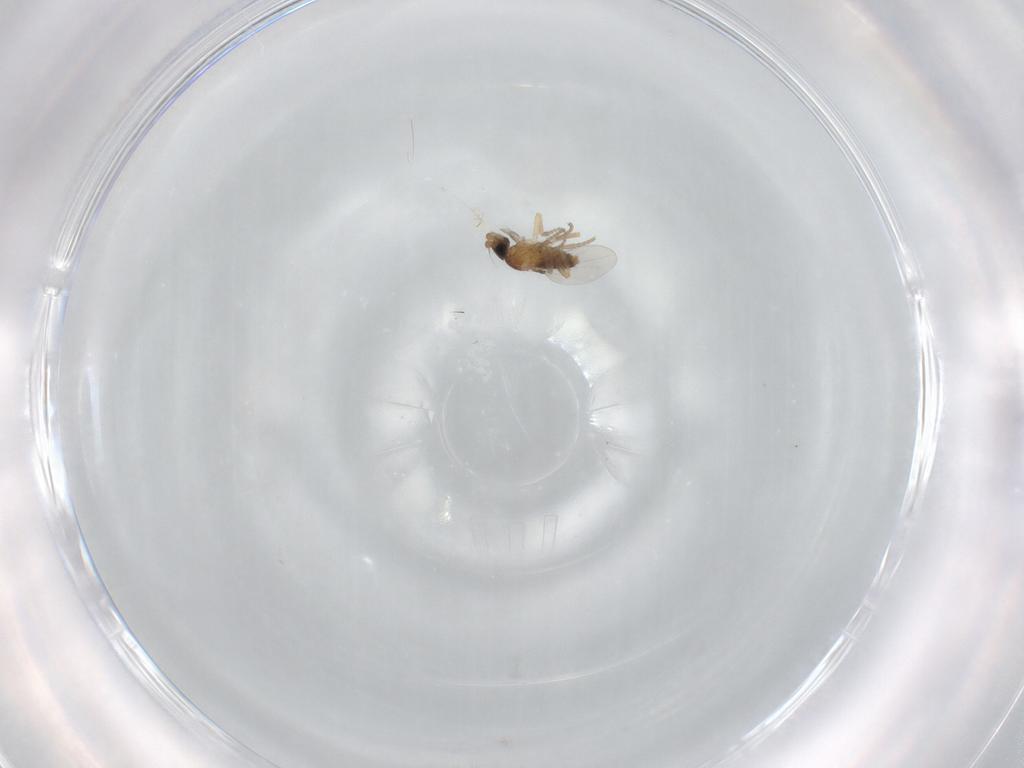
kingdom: Animalia
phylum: Arthropoda
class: Insecta
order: Diptera
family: Phoridae
